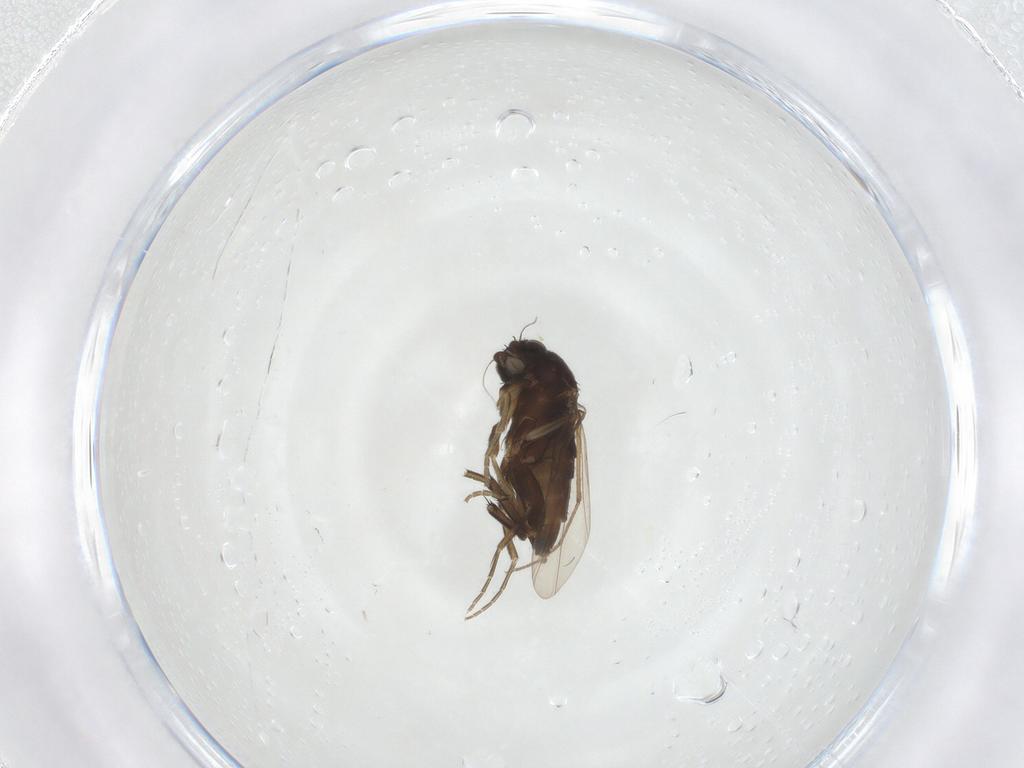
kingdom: Animalia
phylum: Arthropoda
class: Insecta
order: Diptera
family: Phoridae
